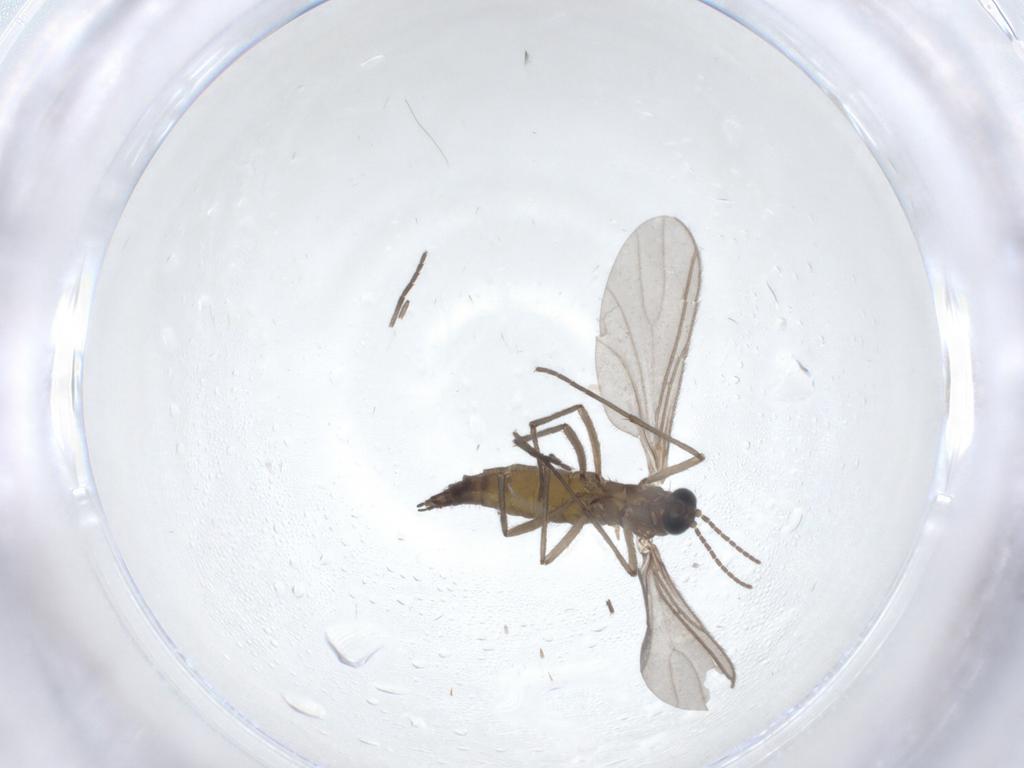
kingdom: Animalia
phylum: Arthropoda
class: Insecta
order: Diptera
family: Sciaridae
